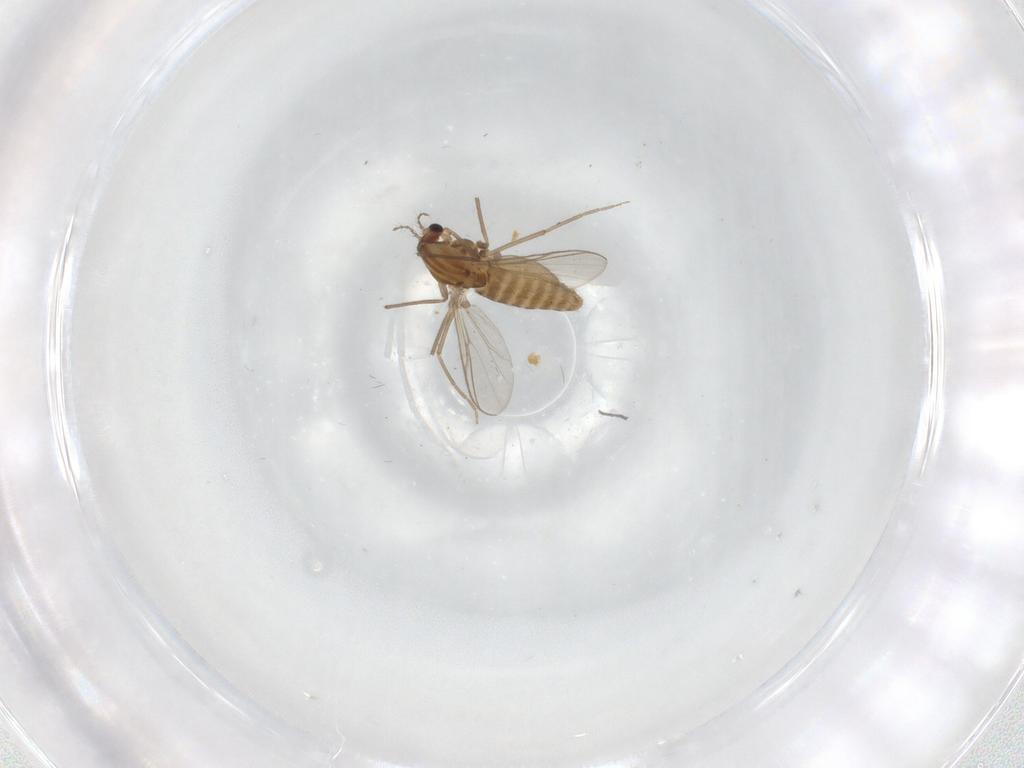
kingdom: Animalia
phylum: Arthropoda
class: Insecta
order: Diptera
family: Chironomidae
